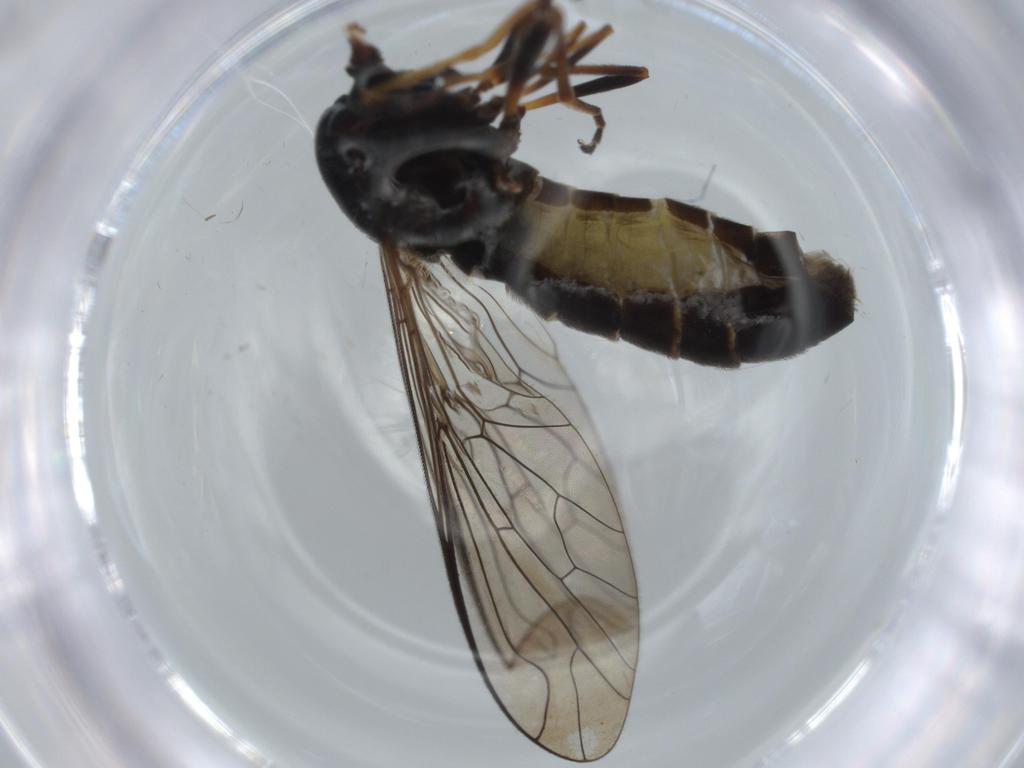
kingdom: Animalia
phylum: Arthropoda
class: Insecta
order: Diptera
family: Bombyliidae
